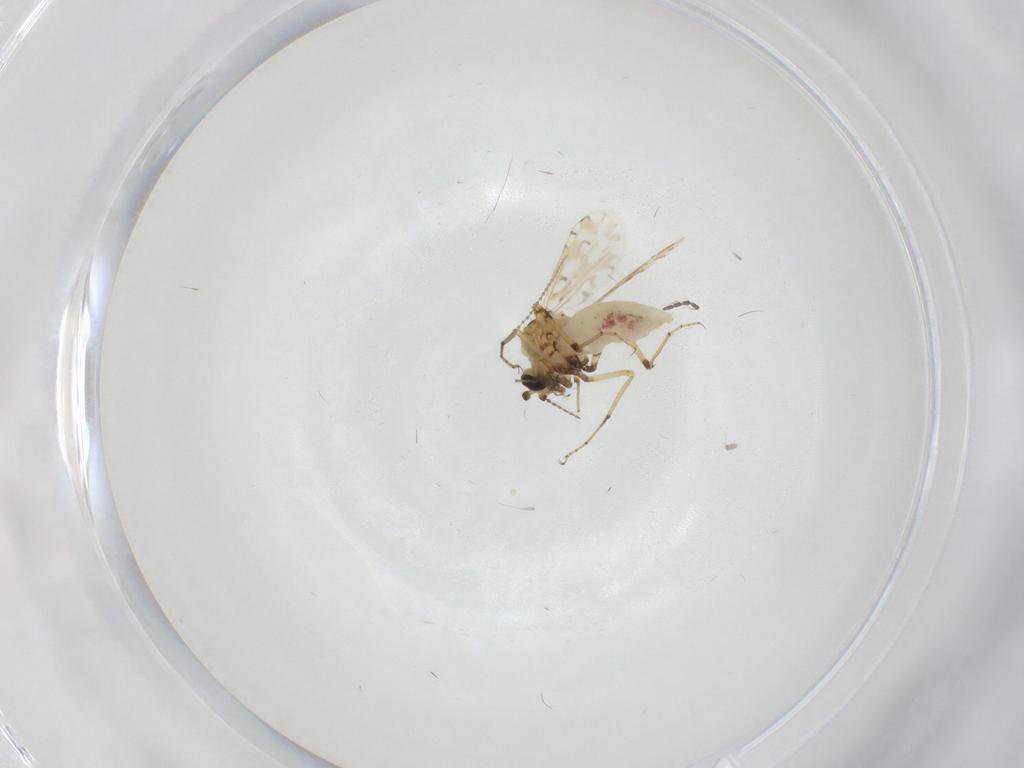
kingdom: Animalia
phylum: Arthropoda
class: Insecta
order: Diptera
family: Ceratopogonidae
